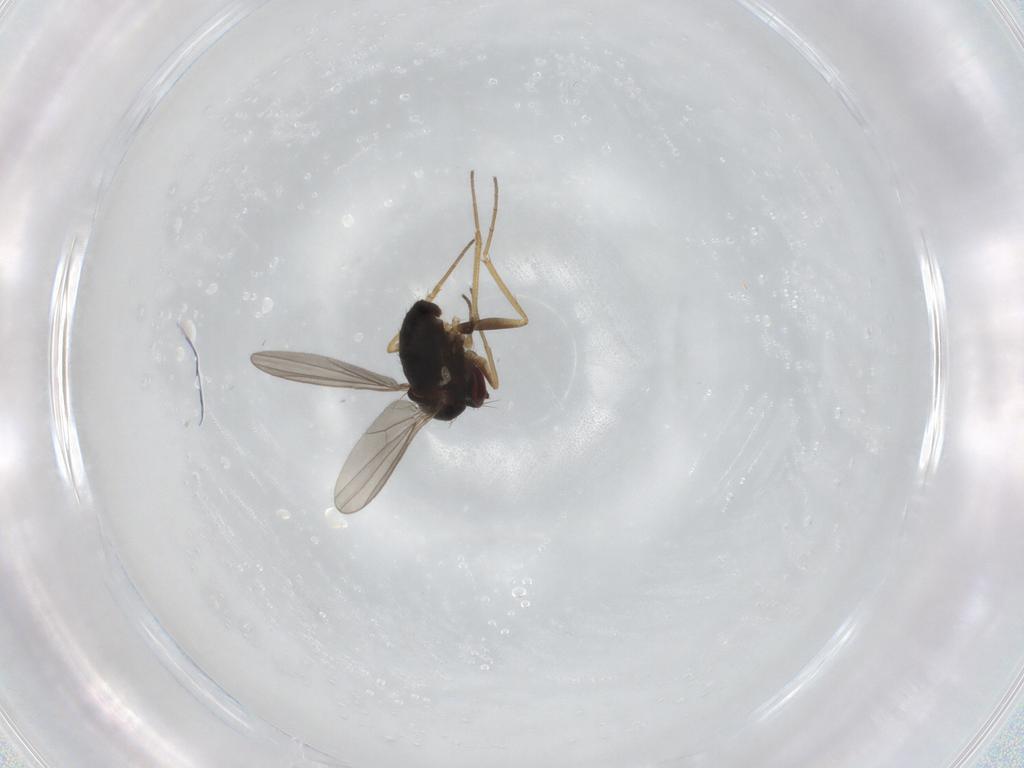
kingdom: Animalia
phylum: Arthropoda
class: Insecta
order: Diptera
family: Dolichopodidae
